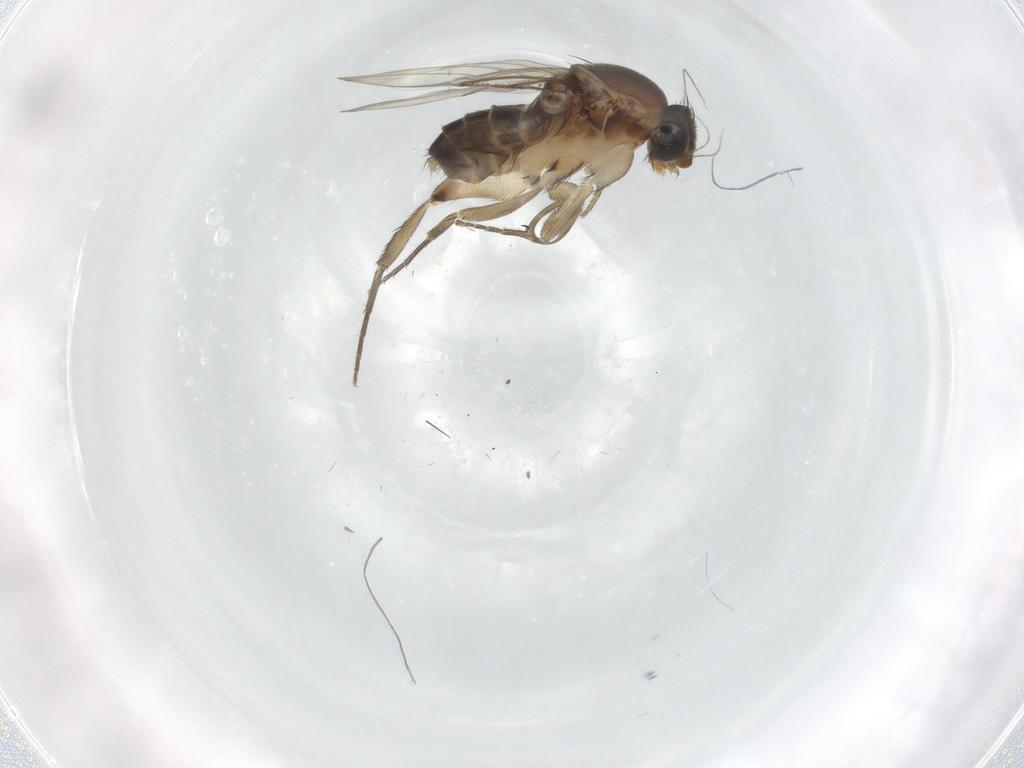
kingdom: Animalia
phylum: Arthropoda
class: Insecta
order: Diptera
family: Phoridae
